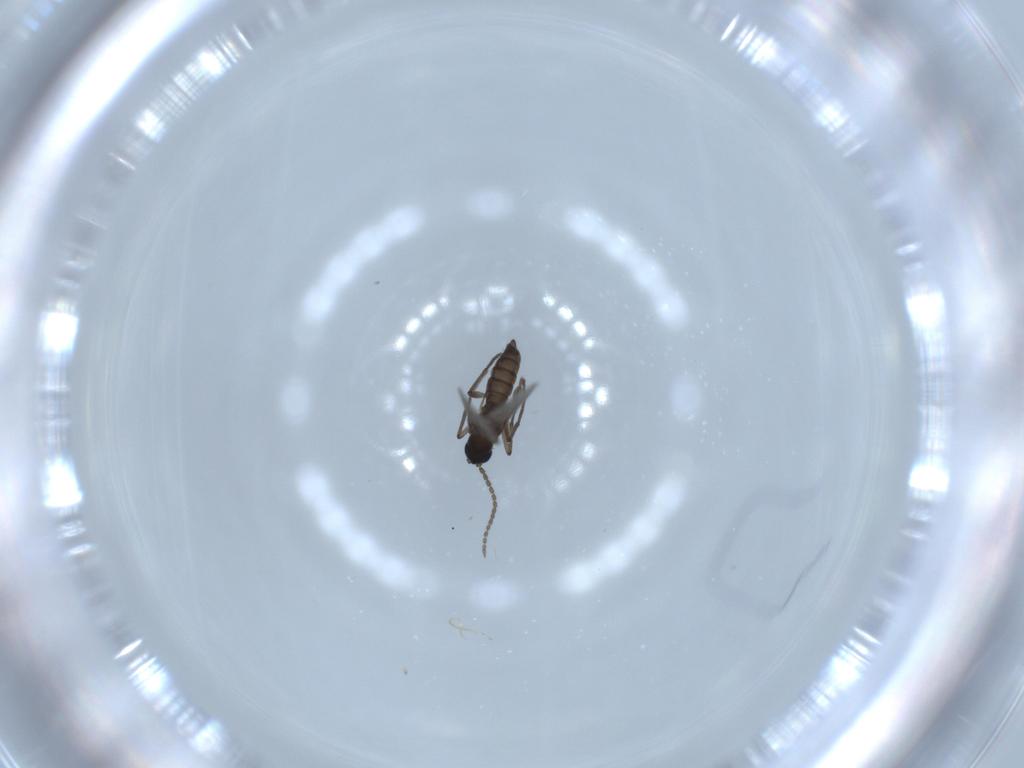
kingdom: Animalia
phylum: Arthropoda
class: Insecta
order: Diptera
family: Sciaridae
